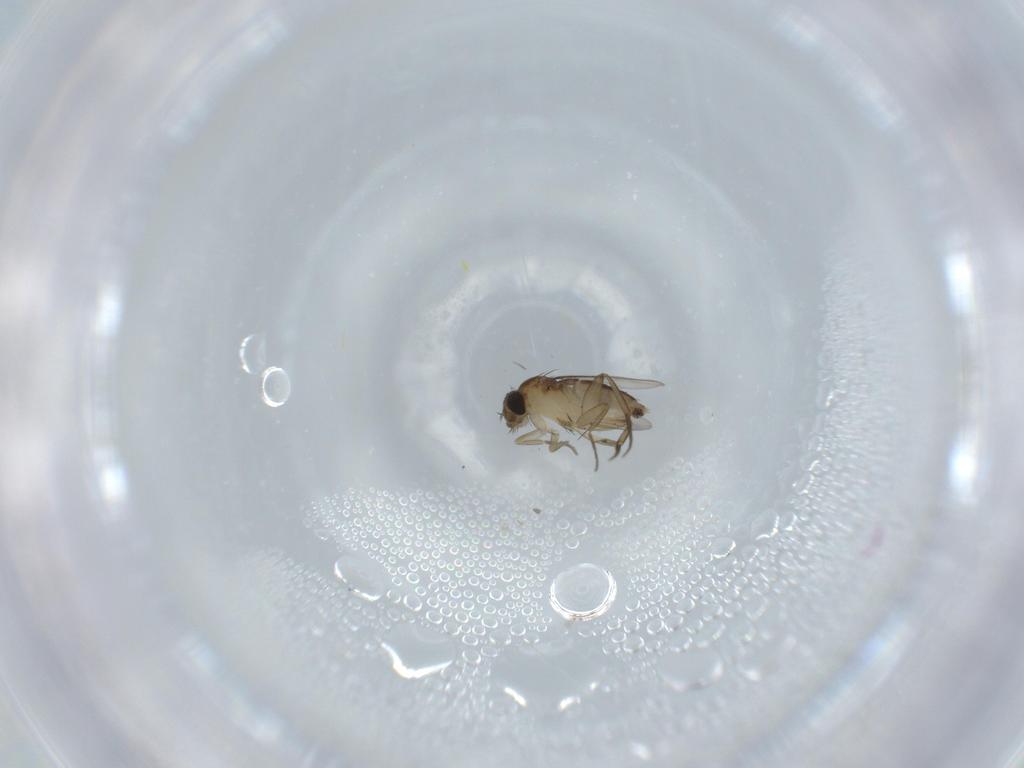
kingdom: Animalia
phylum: Arthropoda
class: Insecta
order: Diptera
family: Phoridae
